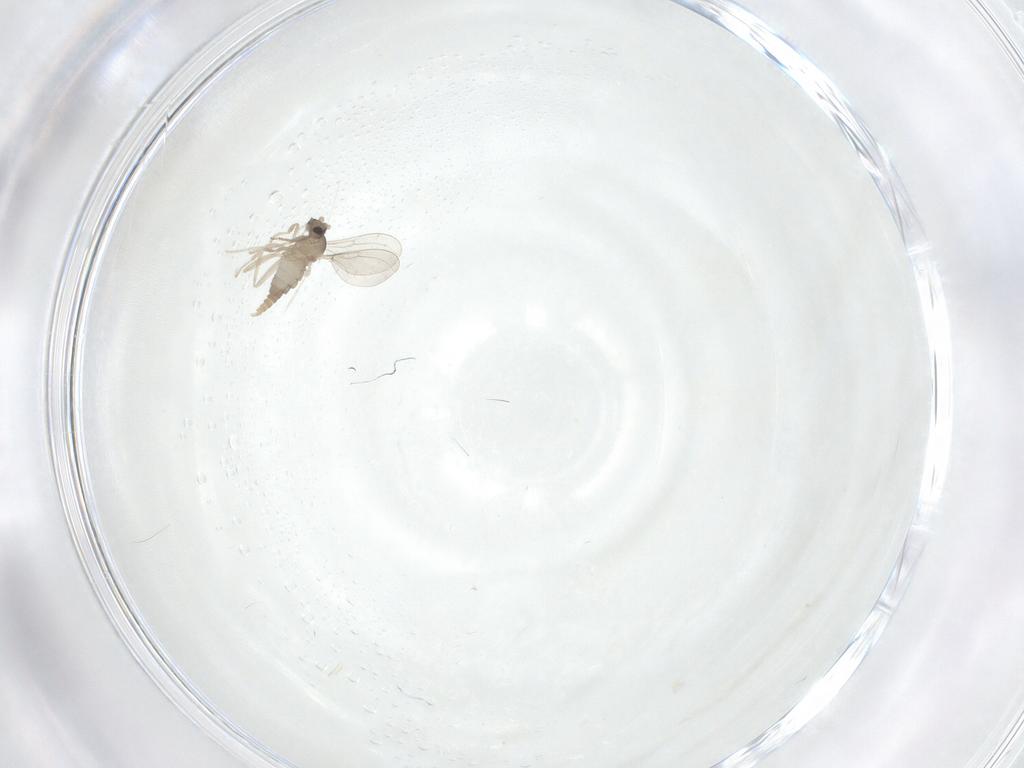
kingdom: Animalia
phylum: Arthropoda
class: Insecta
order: Diptera
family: Cecidomyiidae
